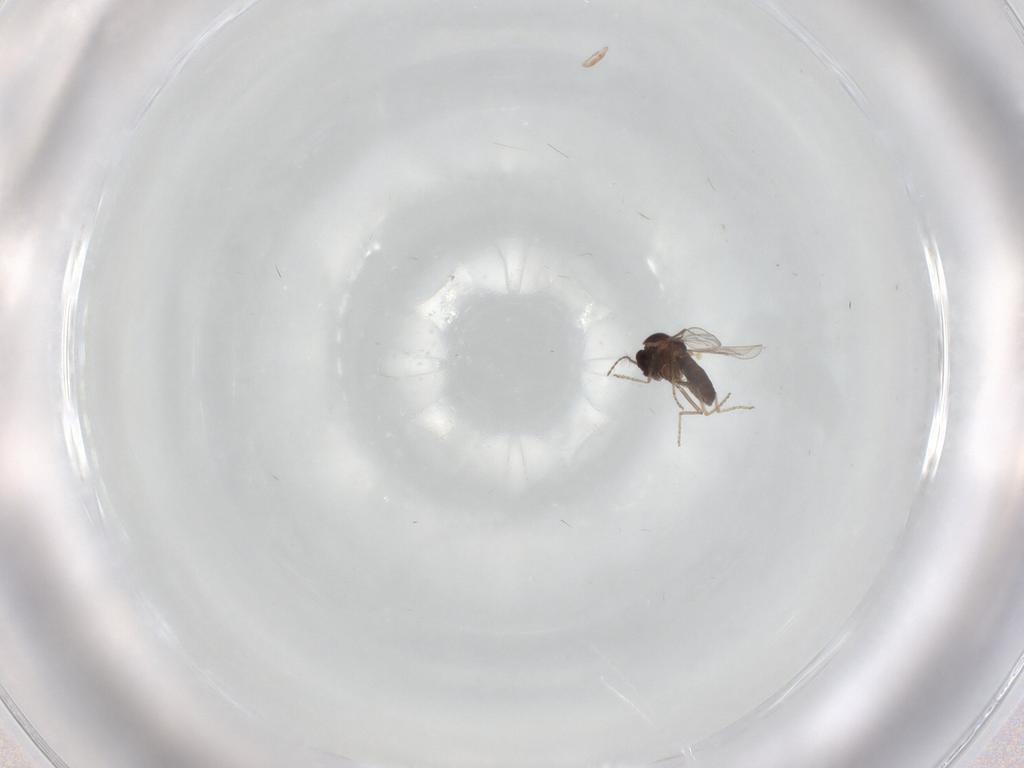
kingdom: Animalia
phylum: Arthropoda
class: Insecta
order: Diptera
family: Ceratopogonidae
